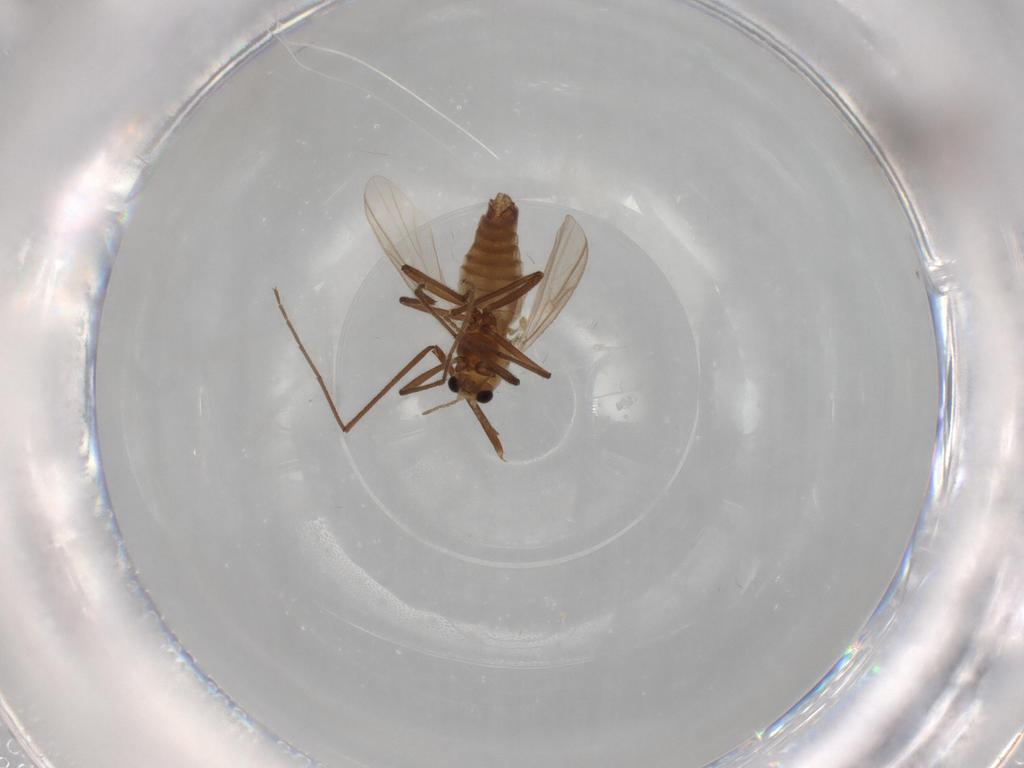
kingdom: Animalia
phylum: Arthropoda
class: Insecta
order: Diptera
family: Chironomidae
